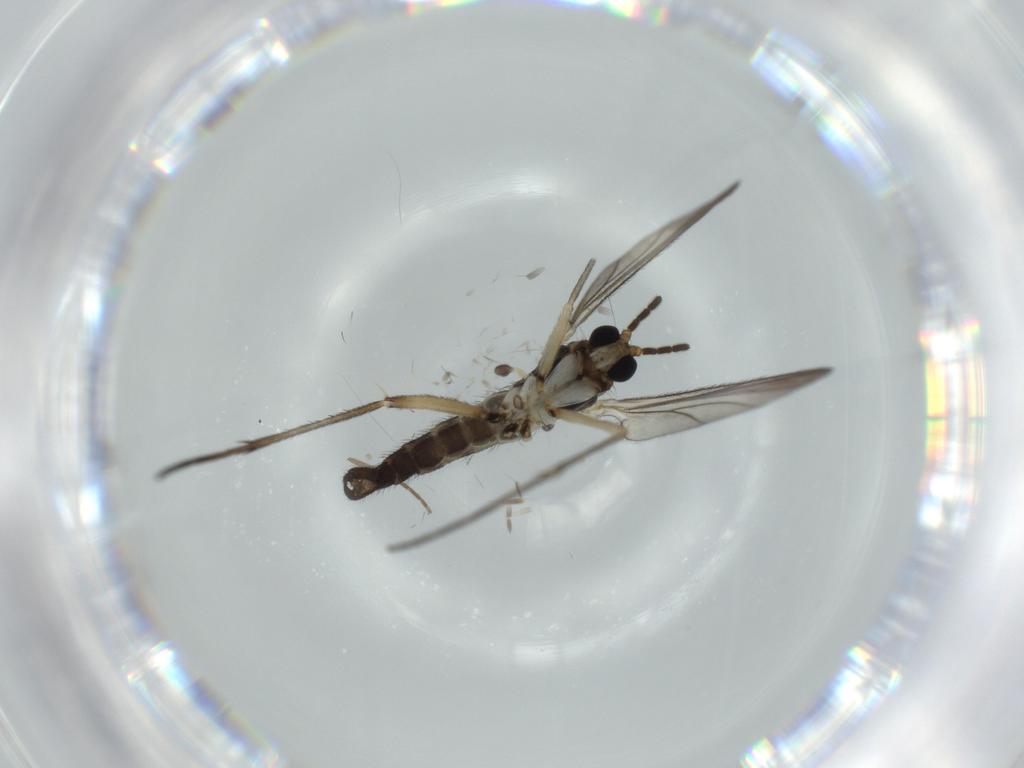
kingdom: Animalia
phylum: Arthropoda
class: Insecta
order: Diptera
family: Sciaridae
